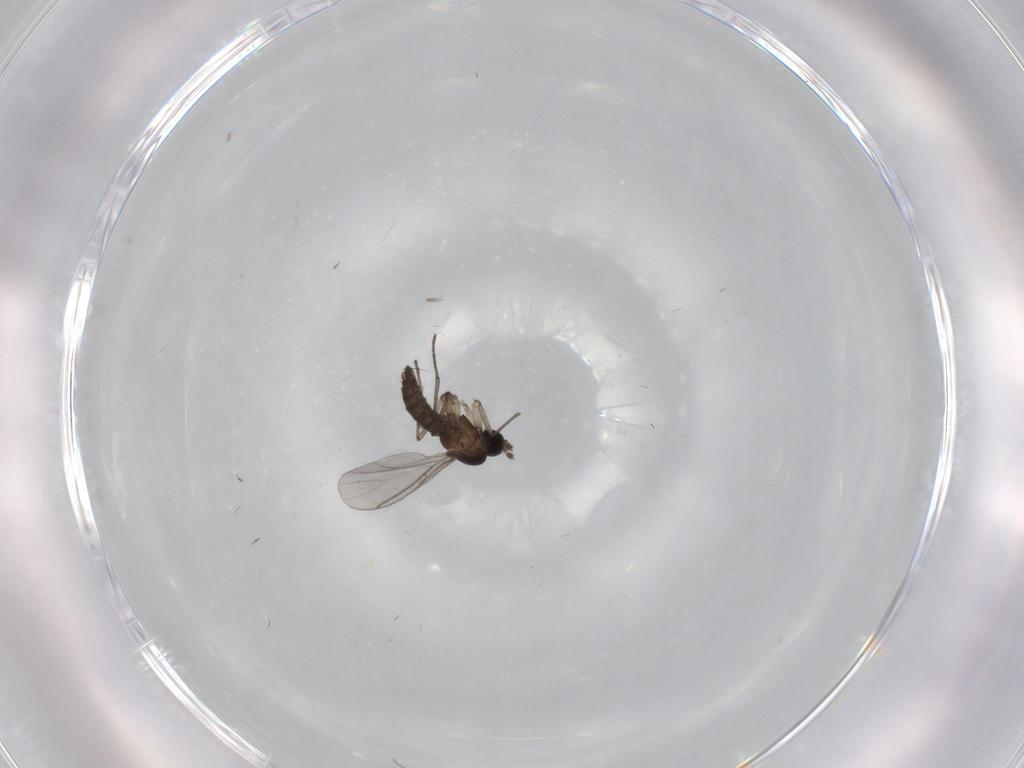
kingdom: Animalia
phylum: Arthropoda
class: Insecta
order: Diptera
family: Sciaridae
